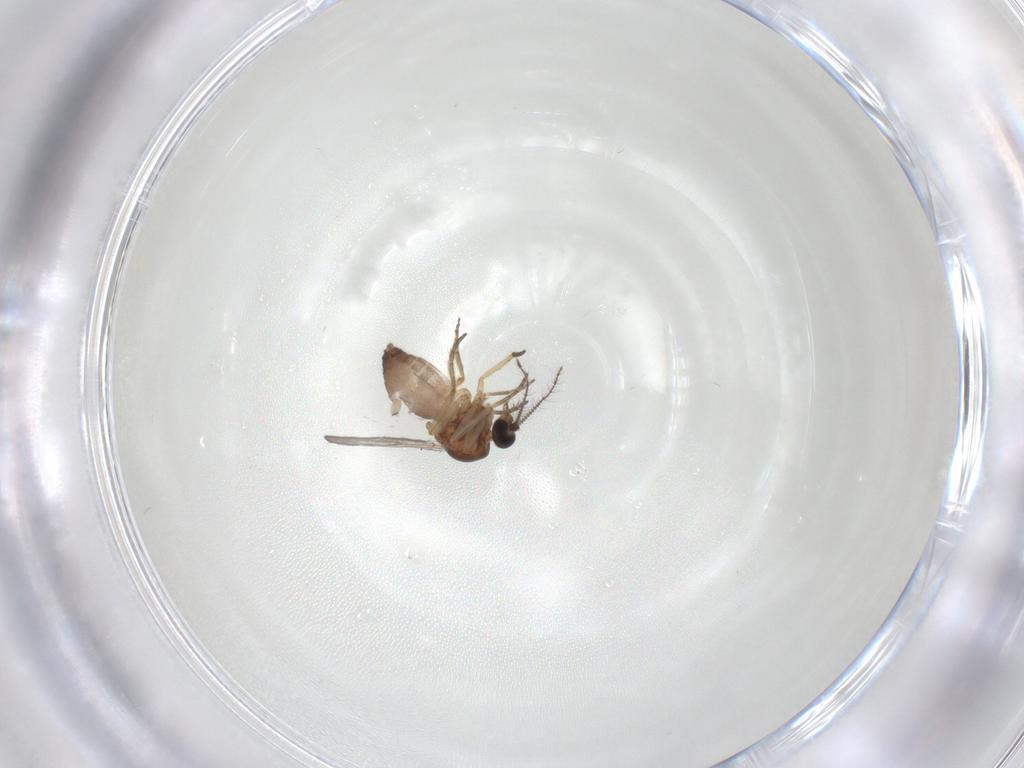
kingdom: Animalia
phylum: Arthropoda
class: Insecta
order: Diptera
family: Ceratopogonidae
